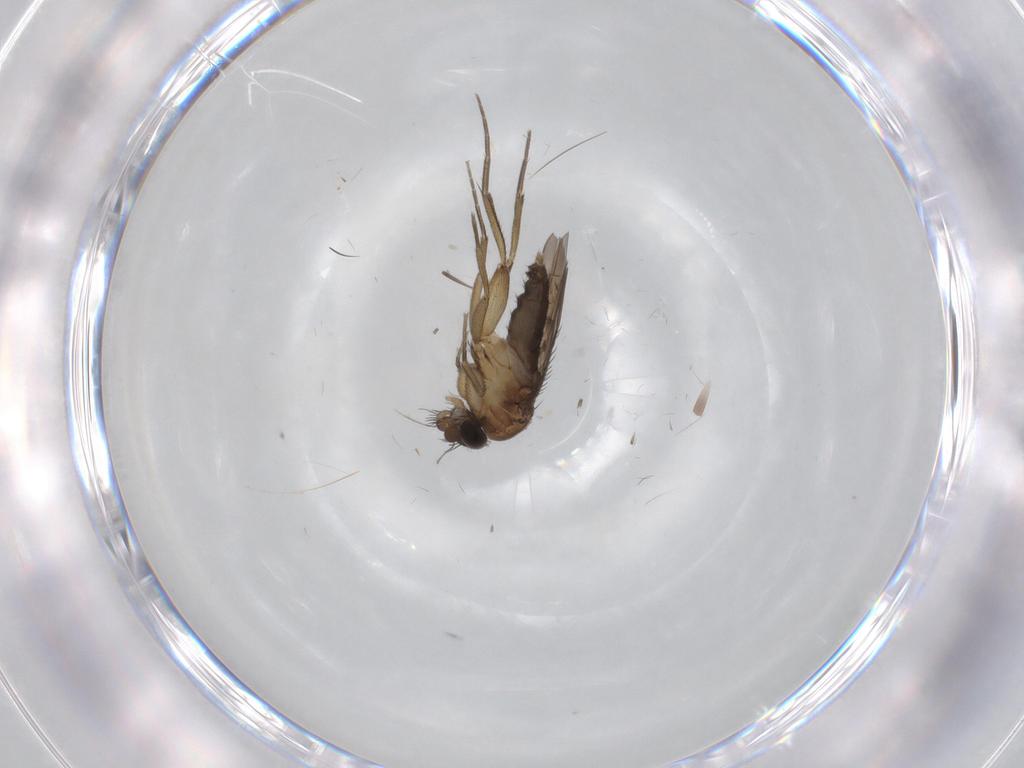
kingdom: Animalia
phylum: Arthropoda
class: Insecta
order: Diptera
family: Phoridae
